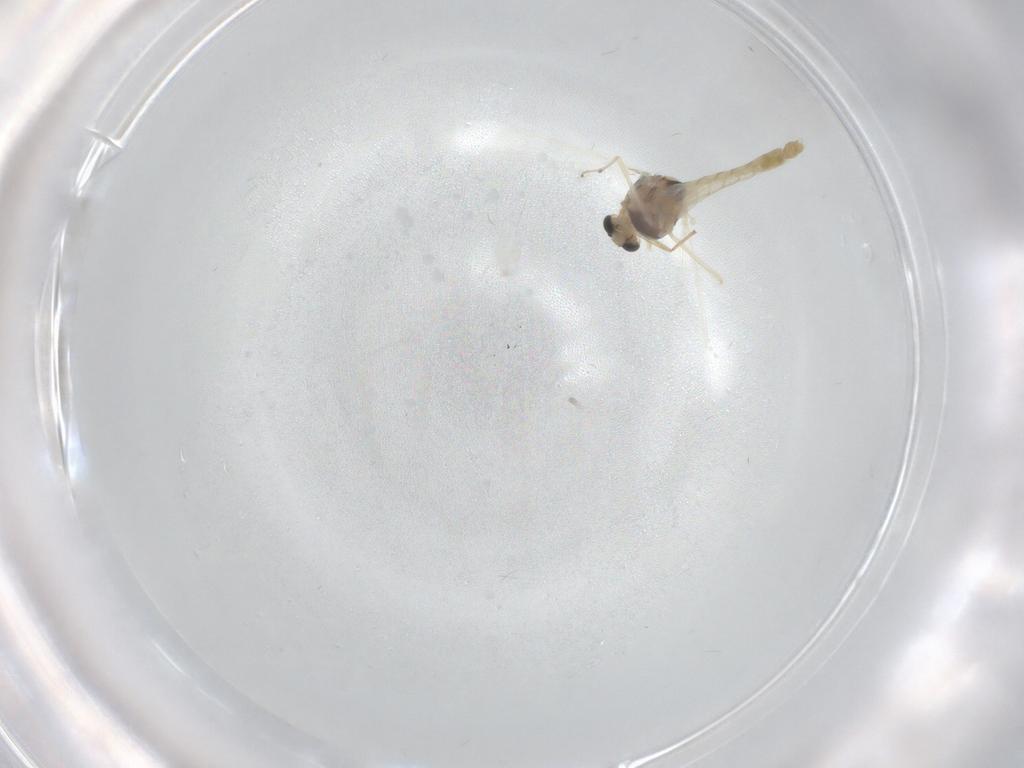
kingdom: Animalia
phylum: Arthropoda
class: Insecta
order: Diptera
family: Chironomidae
